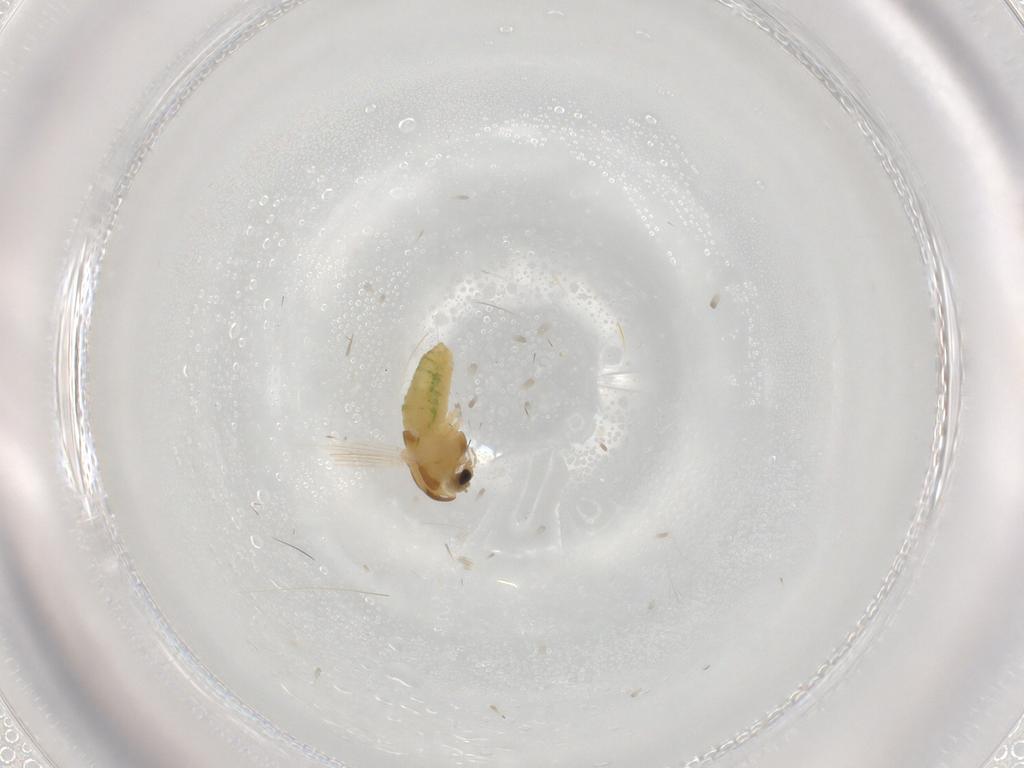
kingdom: Animalia
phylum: Arthropoda
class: Insecta
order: Diptera
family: Chironomidae
